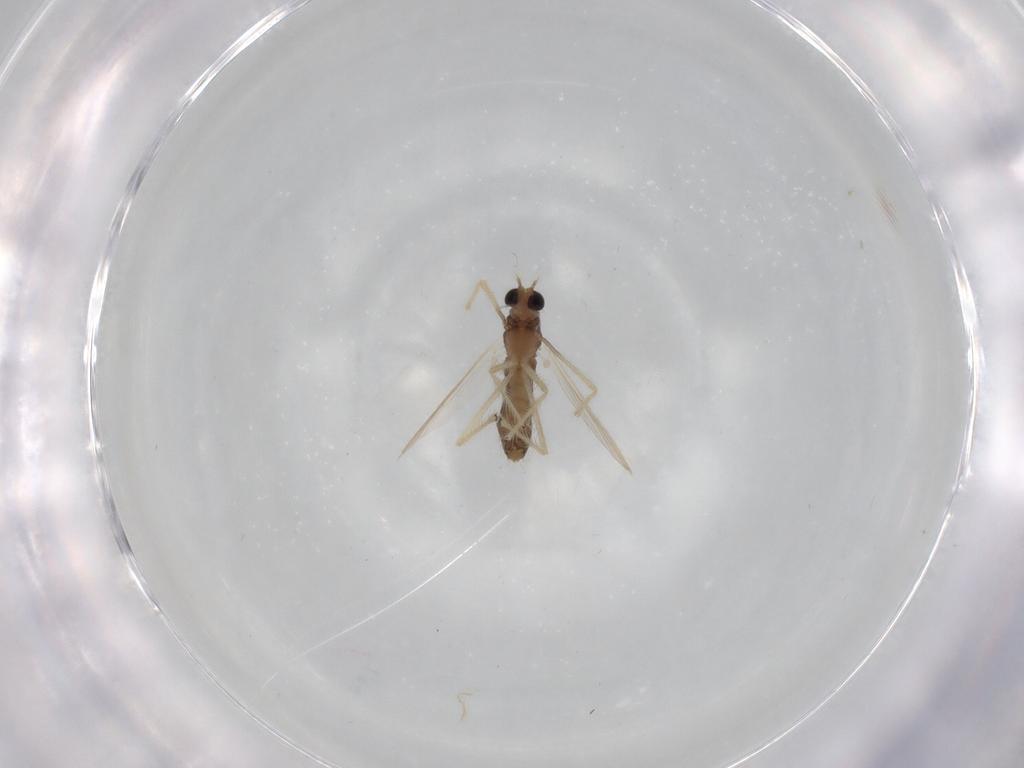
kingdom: Animalia
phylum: Arthropoda
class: Insecta
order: Diptera
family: Chironomidae
